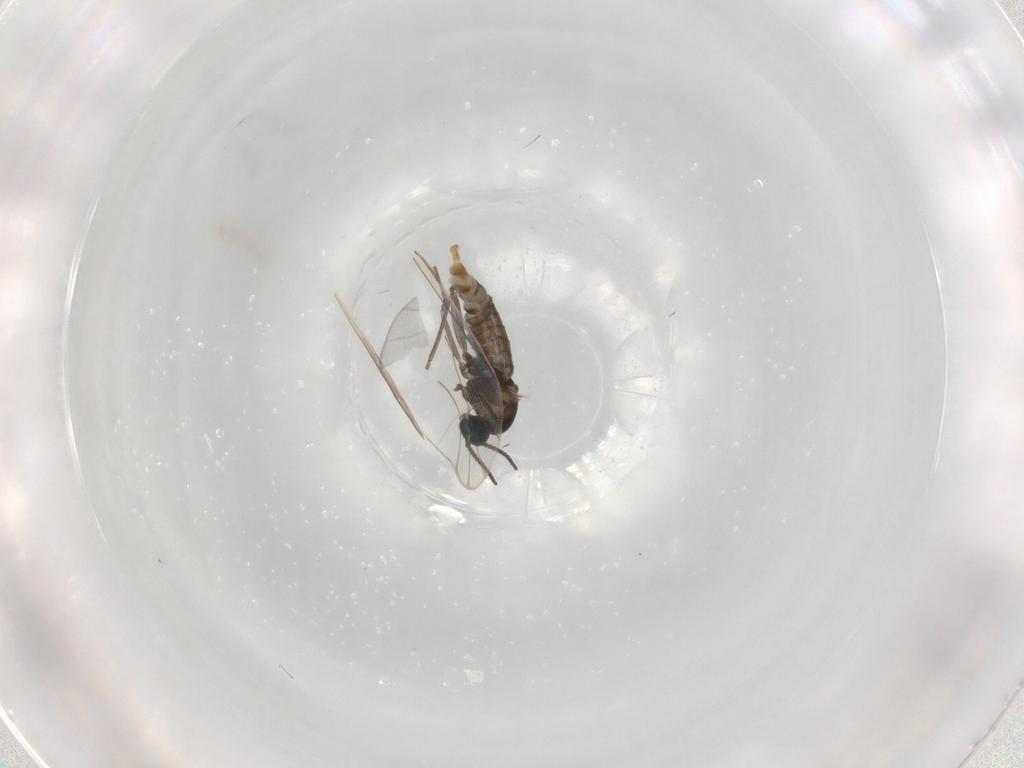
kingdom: Animalia
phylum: Arthropoda
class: Insecta
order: Diptera
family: Cecidomyiidae
